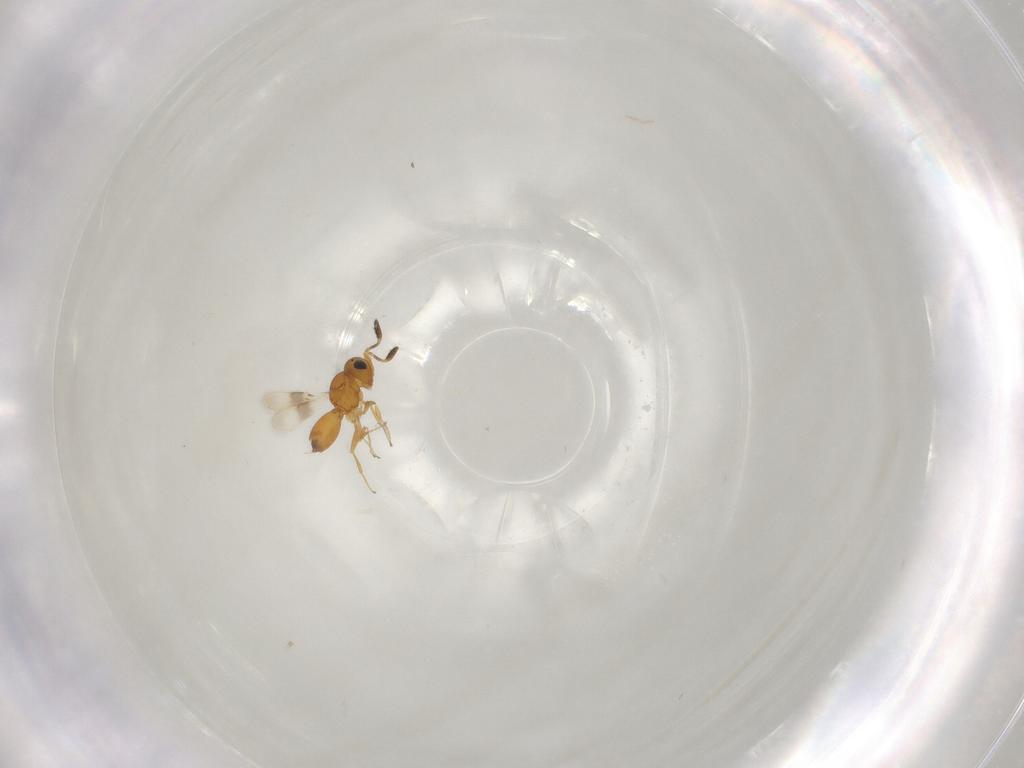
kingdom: Animalia
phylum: Arthropoda
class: Insecta
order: Hymenoptera
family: Scelionidae
